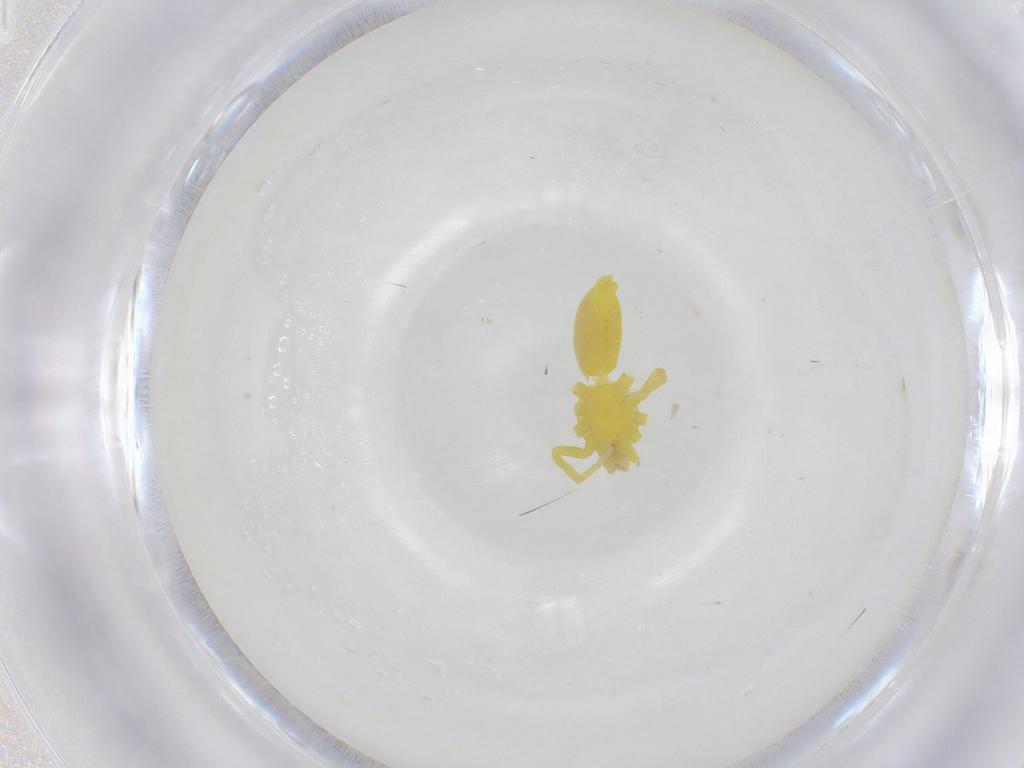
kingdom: Animalia
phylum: Arthropoda
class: Arachnida
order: Araneae
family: Clubionidae
